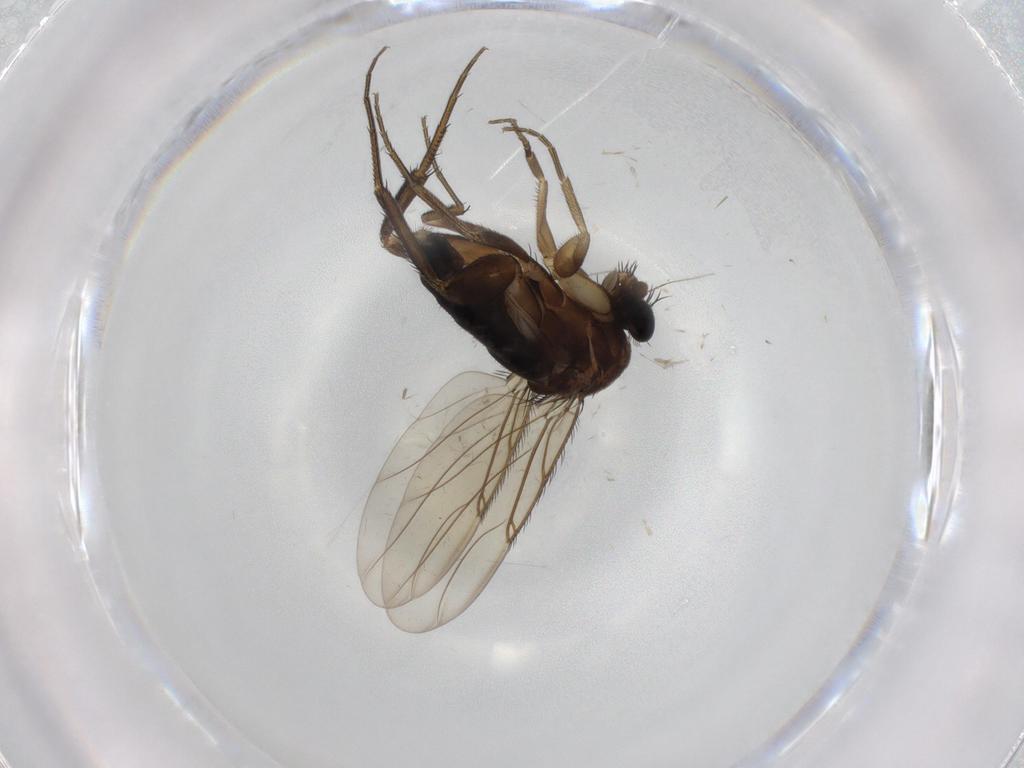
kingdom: Animalia
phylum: Arthropoda
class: Insecta
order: Diptera
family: Phoridae
